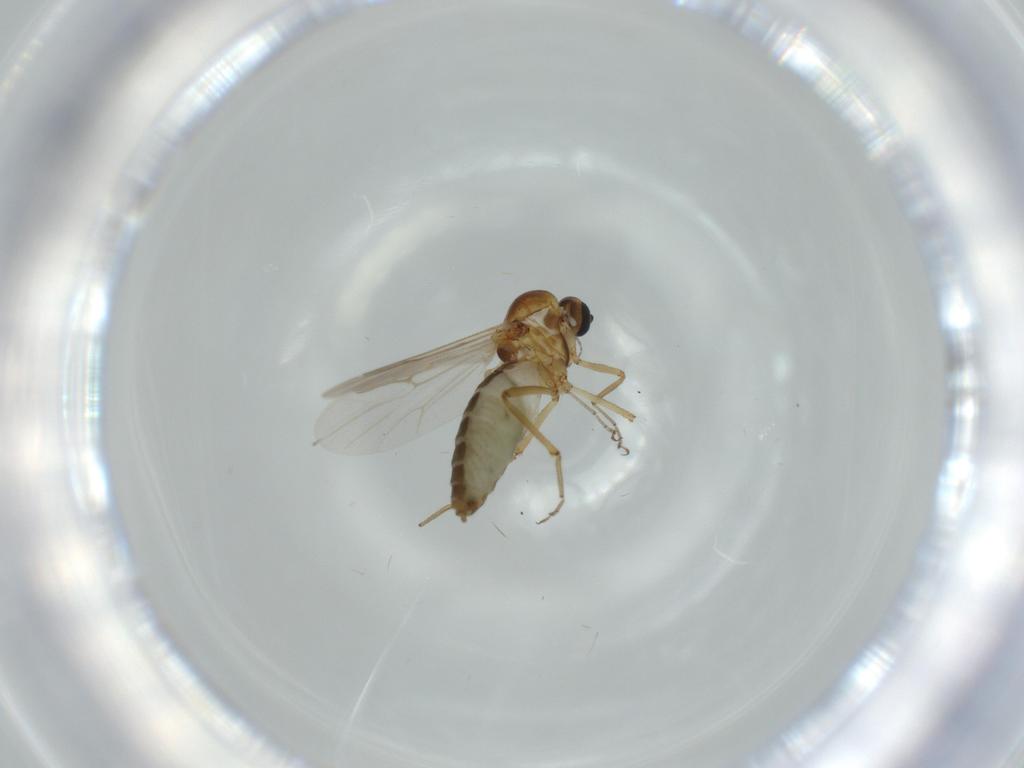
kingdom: Animalia
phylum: Arthropoda
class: Insecta
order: Diptera
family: Ceratopogonidae
